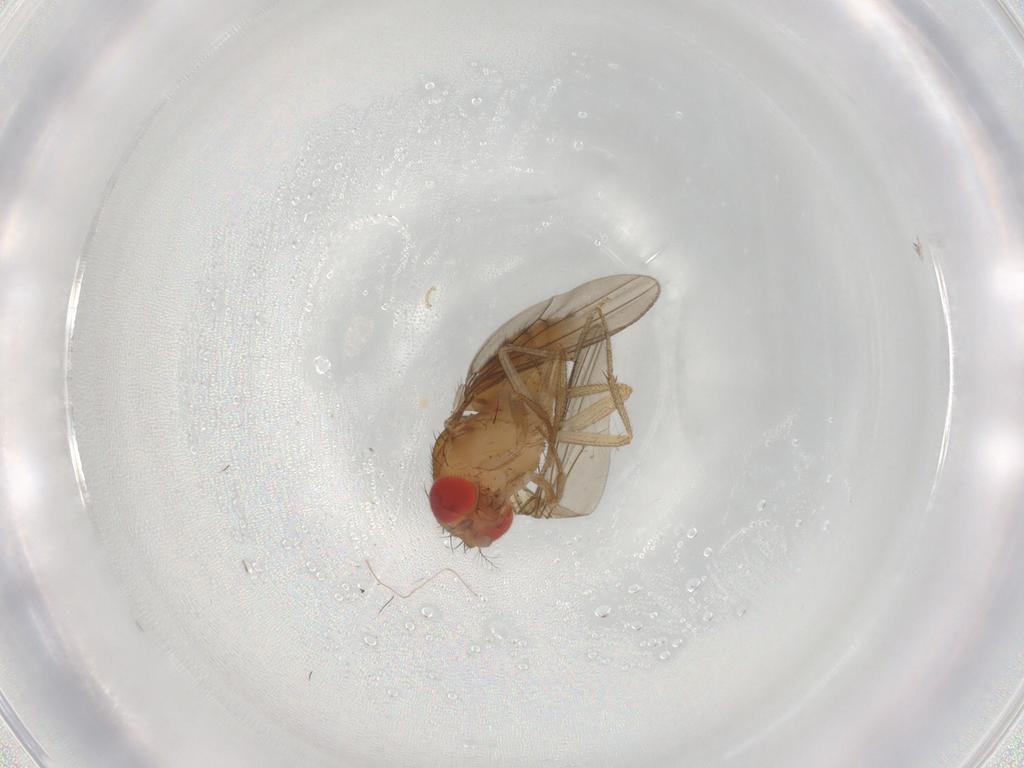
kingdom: Animalia
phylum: Arthropoda
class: Insecta
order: Diptera
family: Drosophilidae
